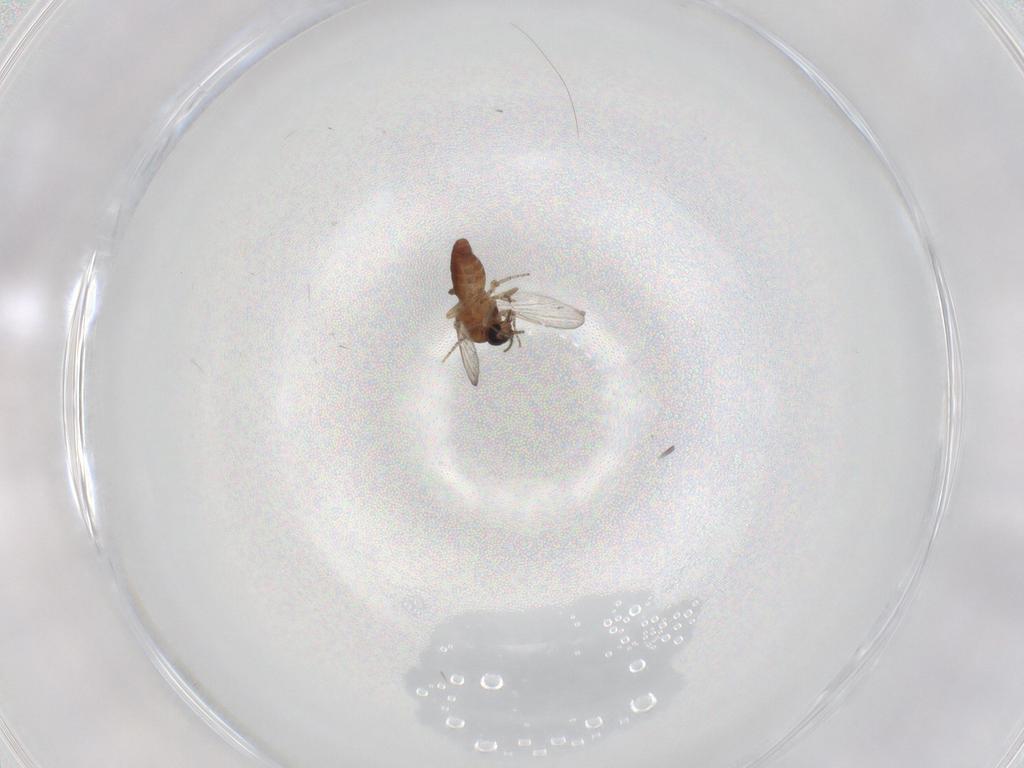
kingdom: Animalia
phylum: Arthropoda
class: Insecta
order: Diptera
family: Ceratopogonidae
